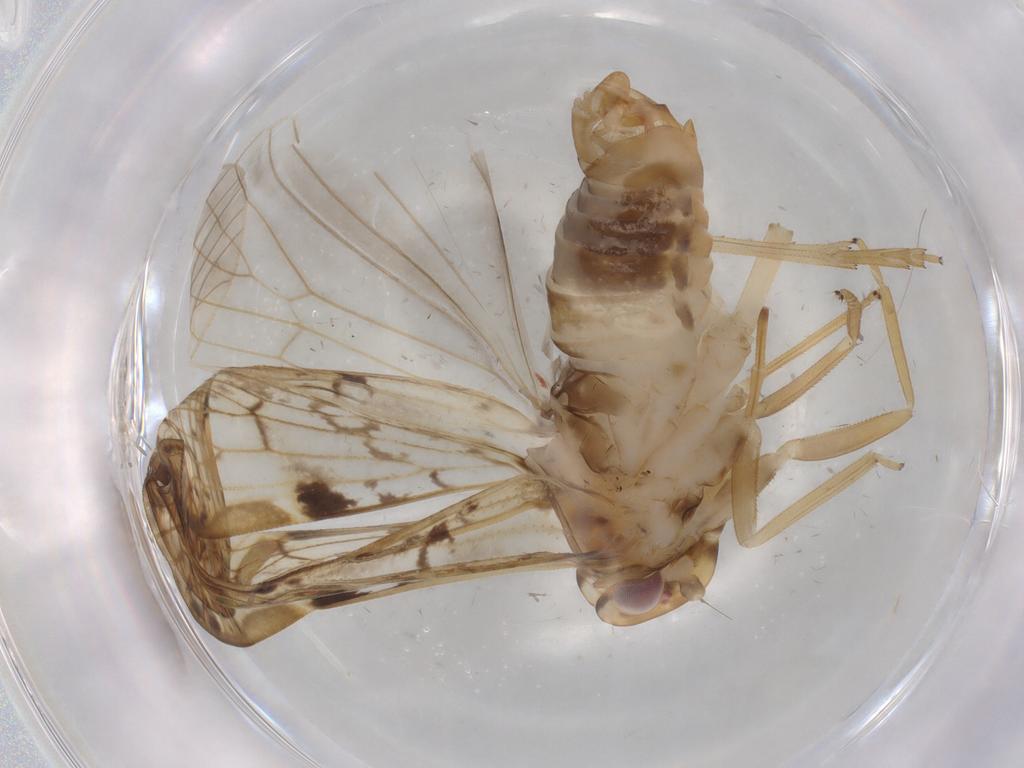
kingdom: Animalia
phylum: Arthropoda
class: Insecta
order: Hemiptera
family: Cixiidae
